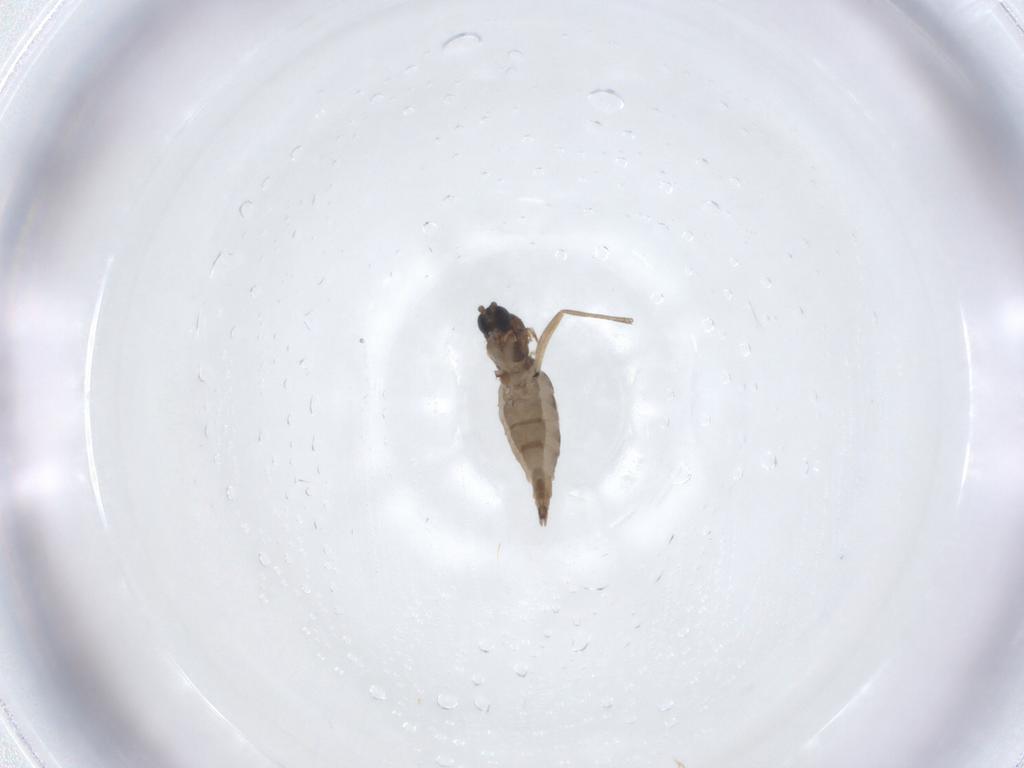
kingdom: Animalia
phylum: Arthropoda
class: Insecta
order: Diptera
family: Sciaridae
